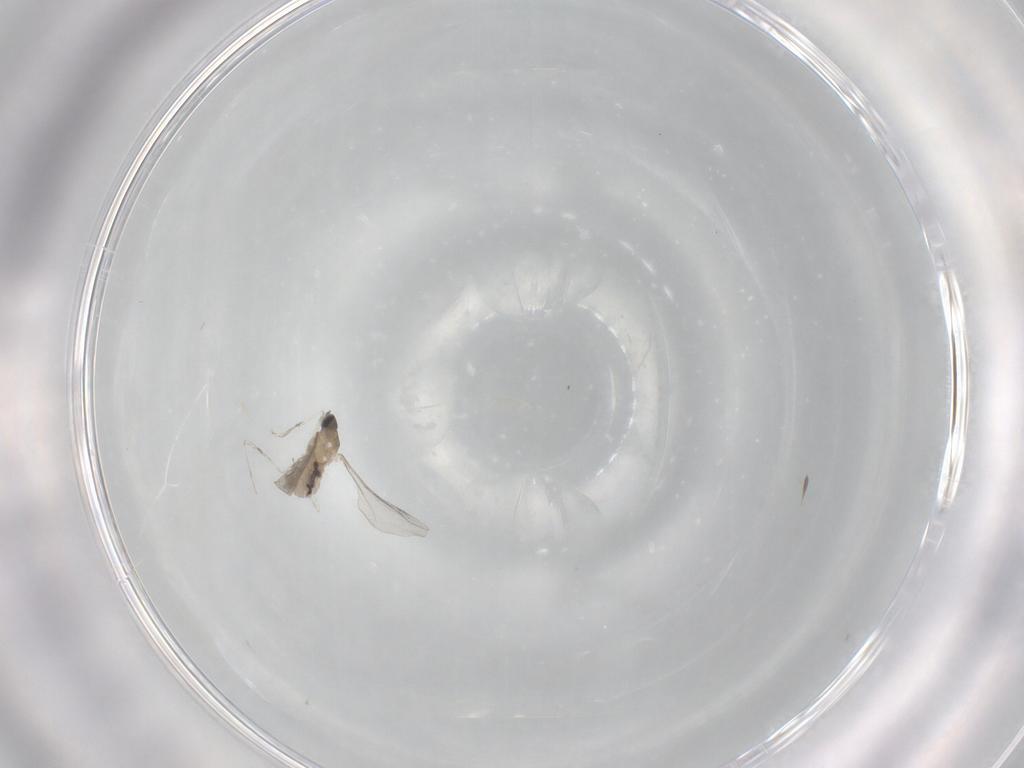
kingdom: Animalia
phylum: Arthropoda
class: Insecta
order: Diptera
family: Cecidomyiidae
